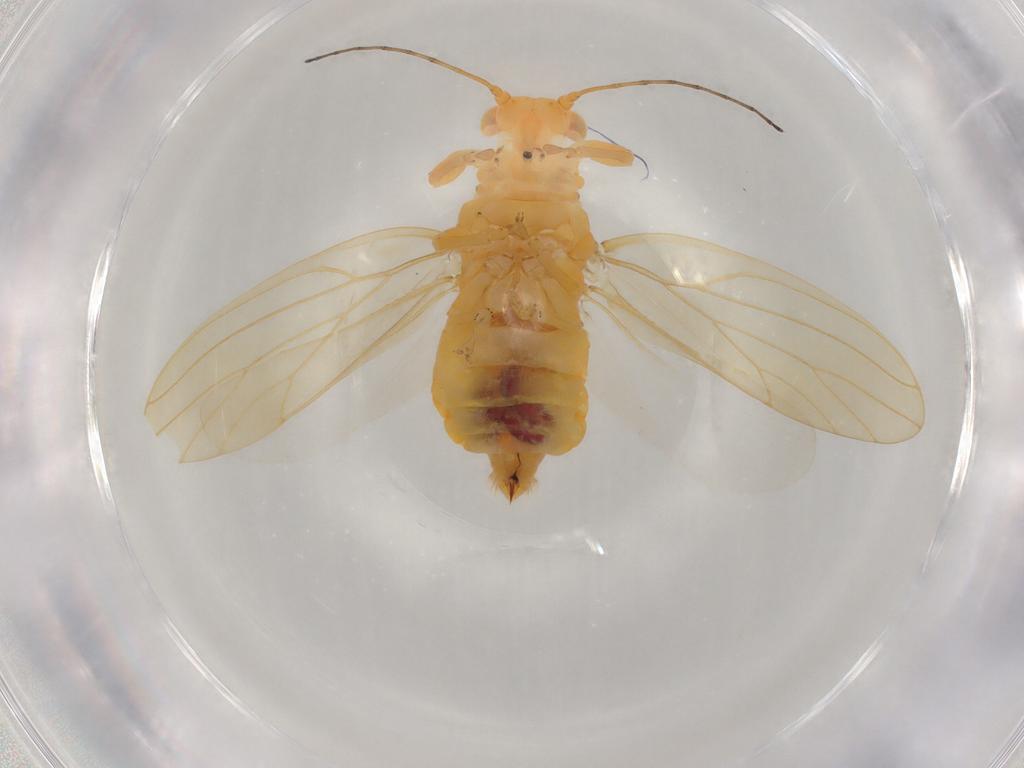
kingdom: Animalia
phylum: Arthropoda
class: Insecta
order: Hemiptera
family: Aphalaridae
